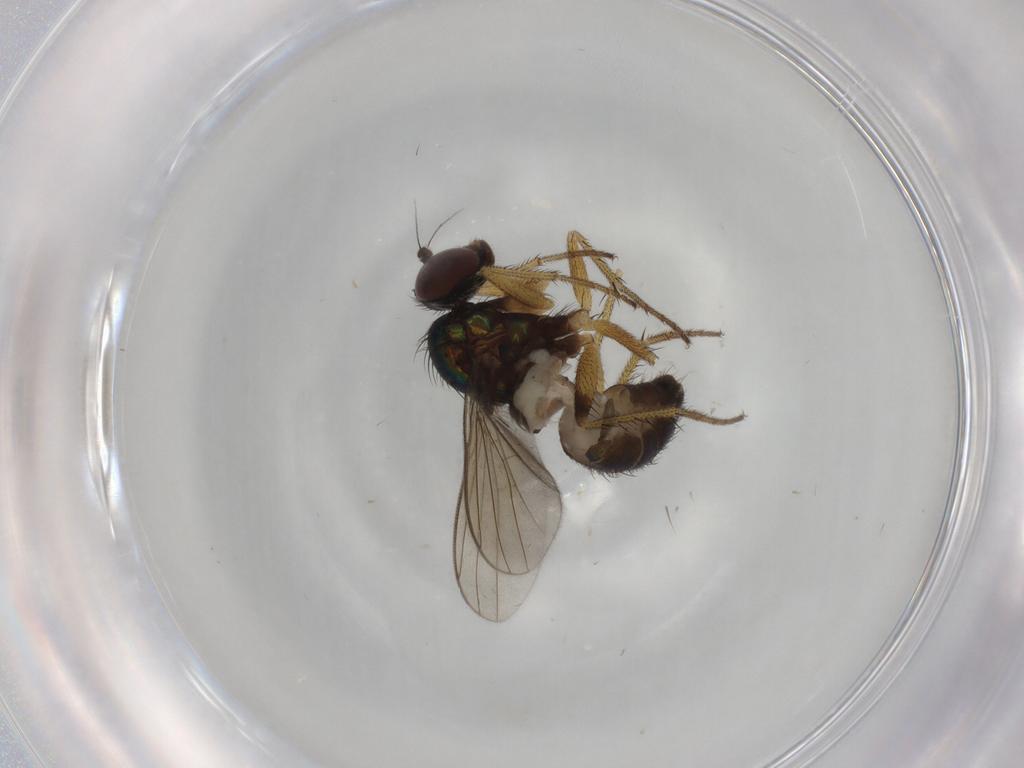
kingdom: Animalia
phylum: Arthropoda
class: Insecta
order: Diptera
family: Dolichopodidae
